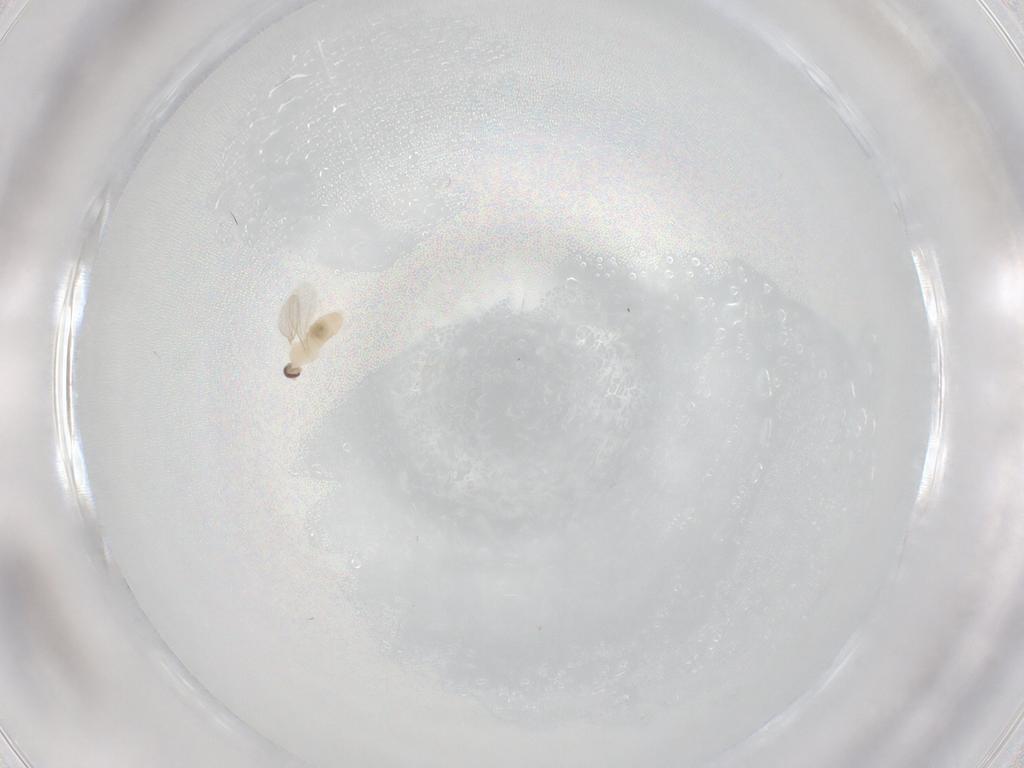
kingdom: Animalia
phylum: Arthropoda
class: Insecta
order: Diptera
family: Cecidomyiidae
